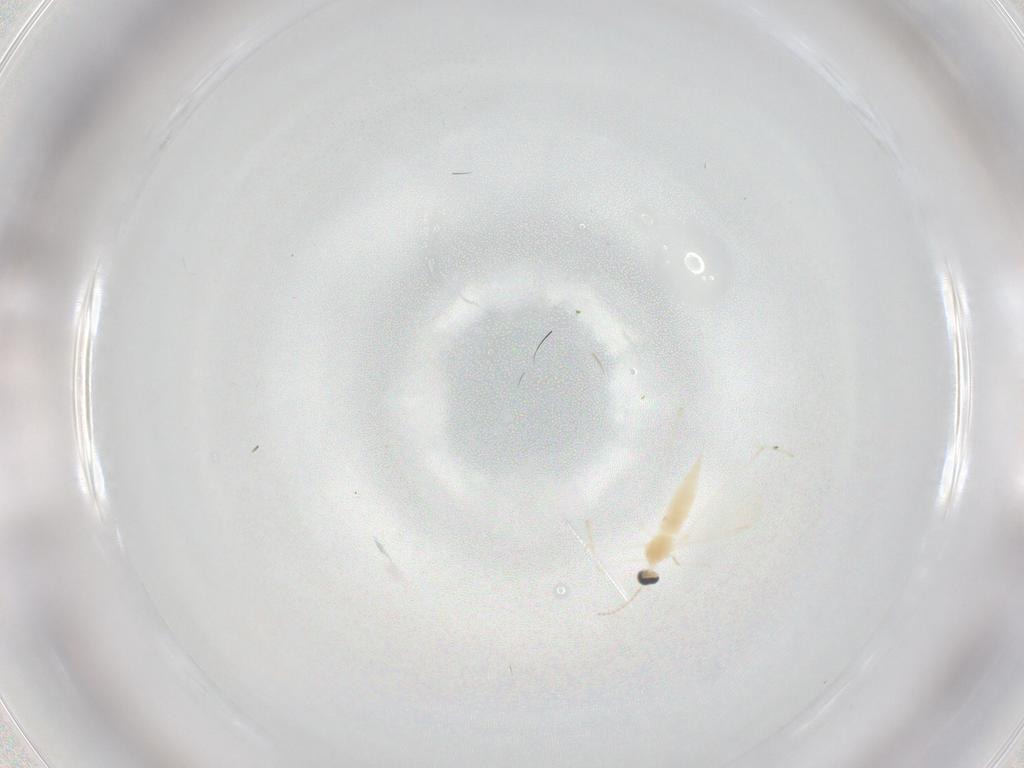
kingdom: Animalia
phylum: Arthropoda
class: Insecta
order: Diptera
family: Cecidomyiidae
